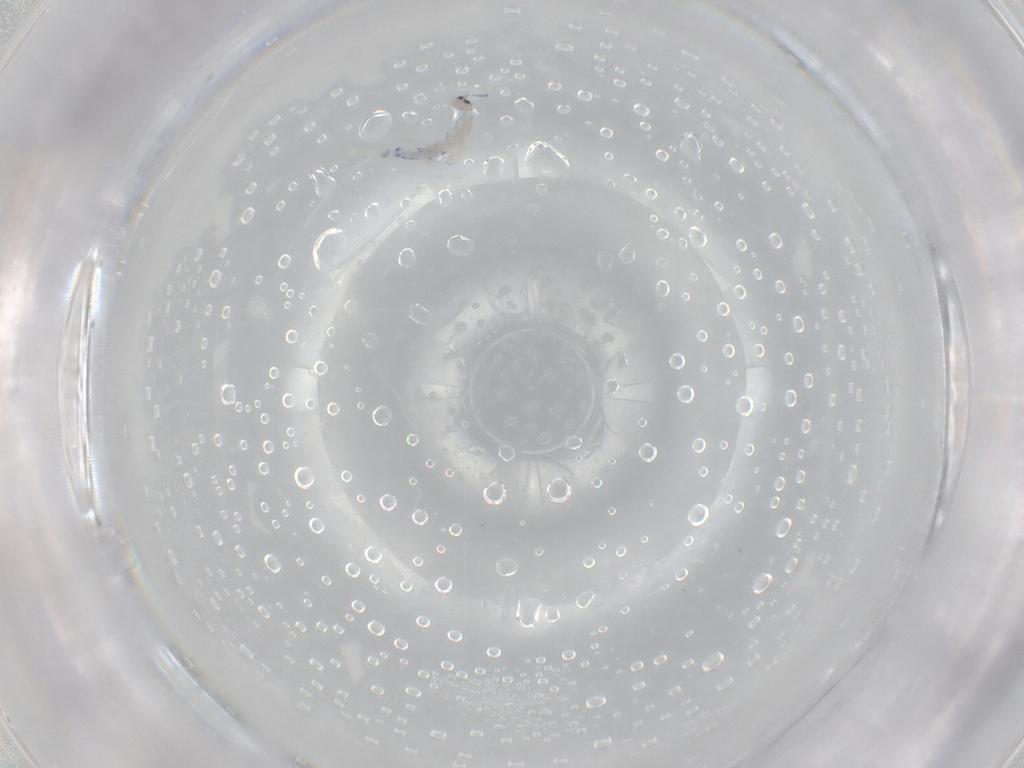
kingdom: Animalia
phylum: Arthropoda
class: Collembola
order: Entomobryomorpha
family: Entomobryidae
